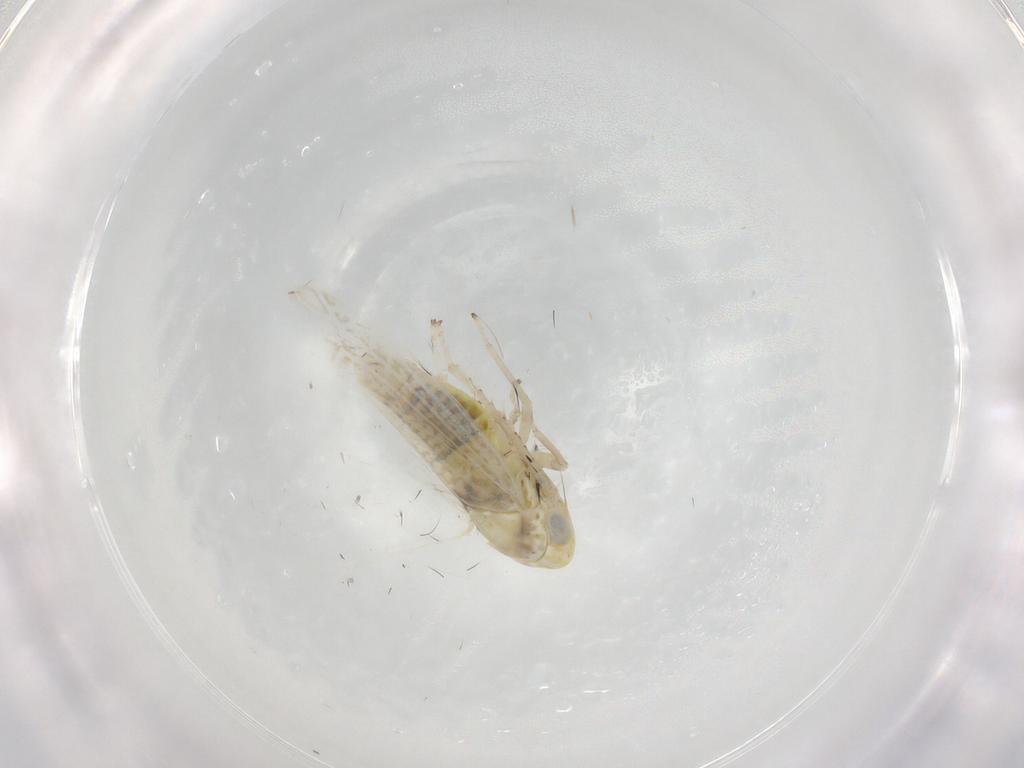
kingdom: Animalia
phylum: Arthropoda
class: Insecta
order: Hemiptera
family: Cicadellidae
